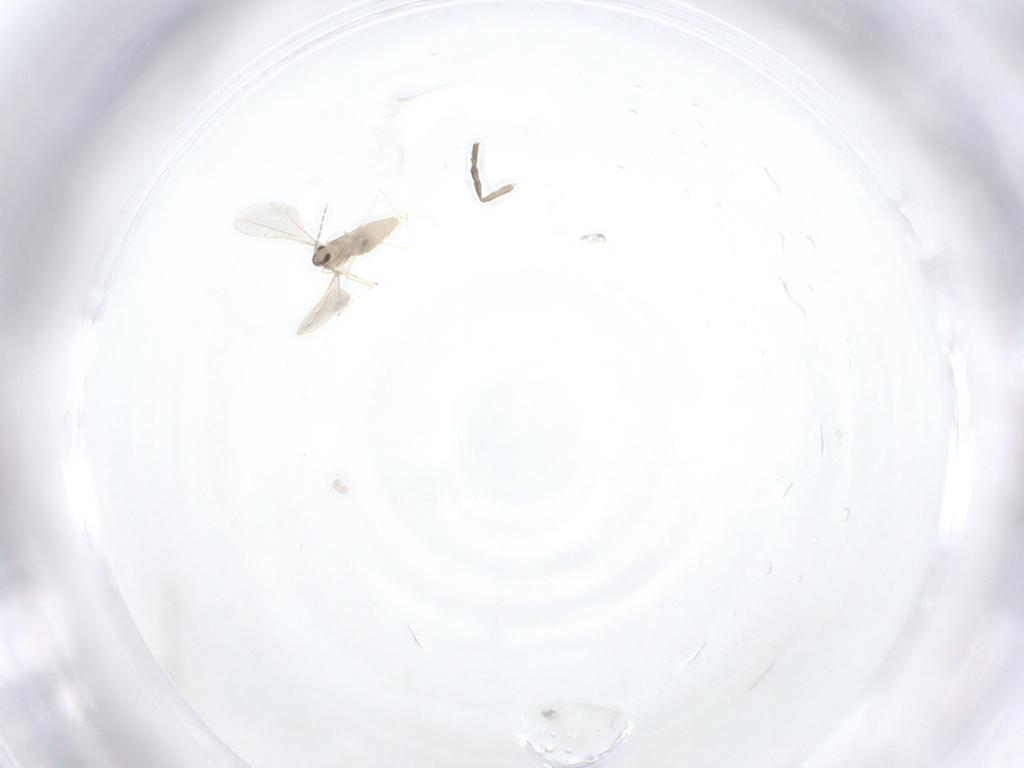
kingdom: Animalia
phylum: Arthropoda
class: Insecta
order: Diptera
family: Cecidomyiidae
